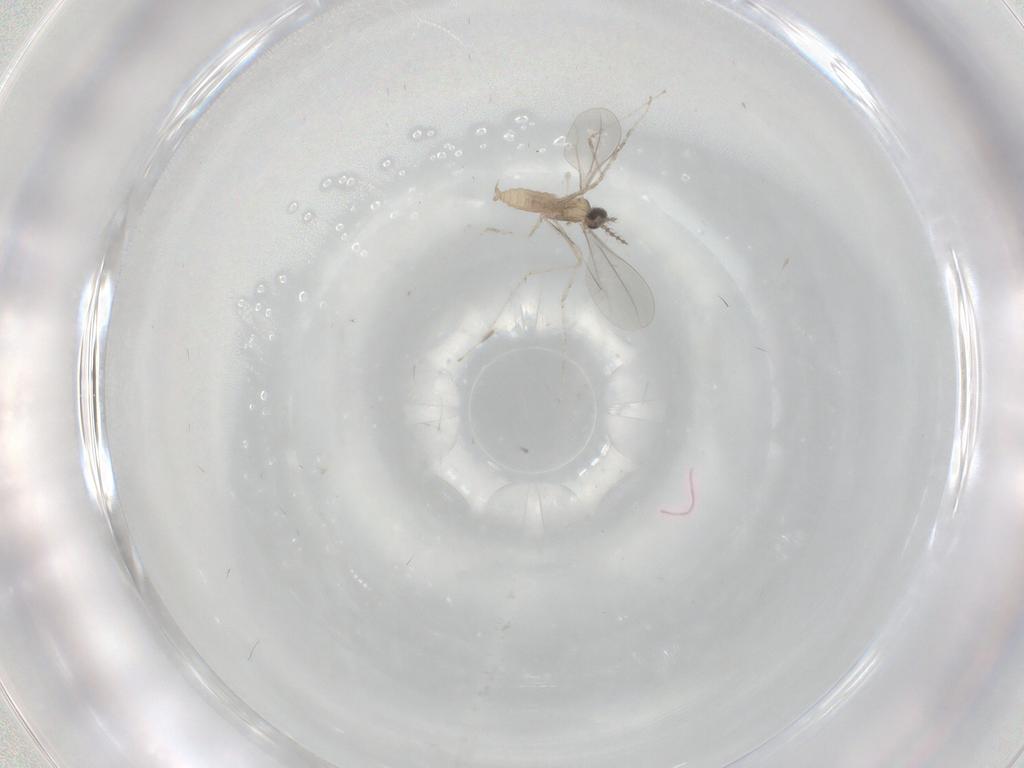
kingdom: Animalia
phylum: Arthropoda
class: Insecta
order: Diptera
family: Cecidomyiidae
